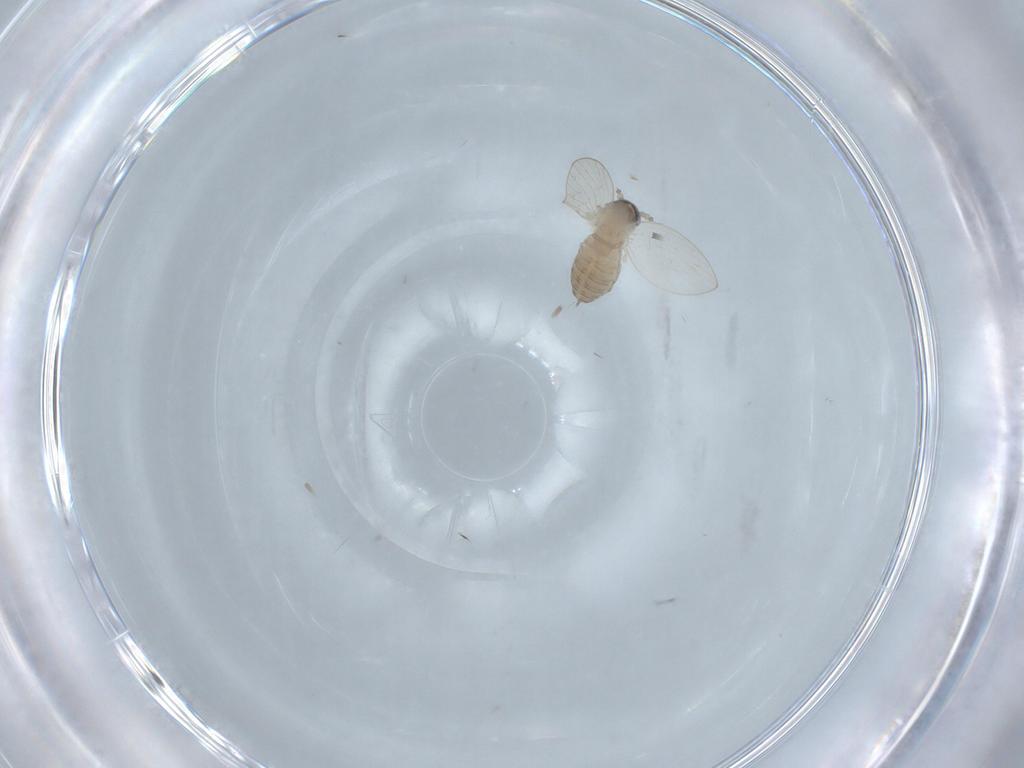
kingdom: Animalia
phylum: Arthropoda
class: Insecta
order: Diptera
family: Psychodidae
